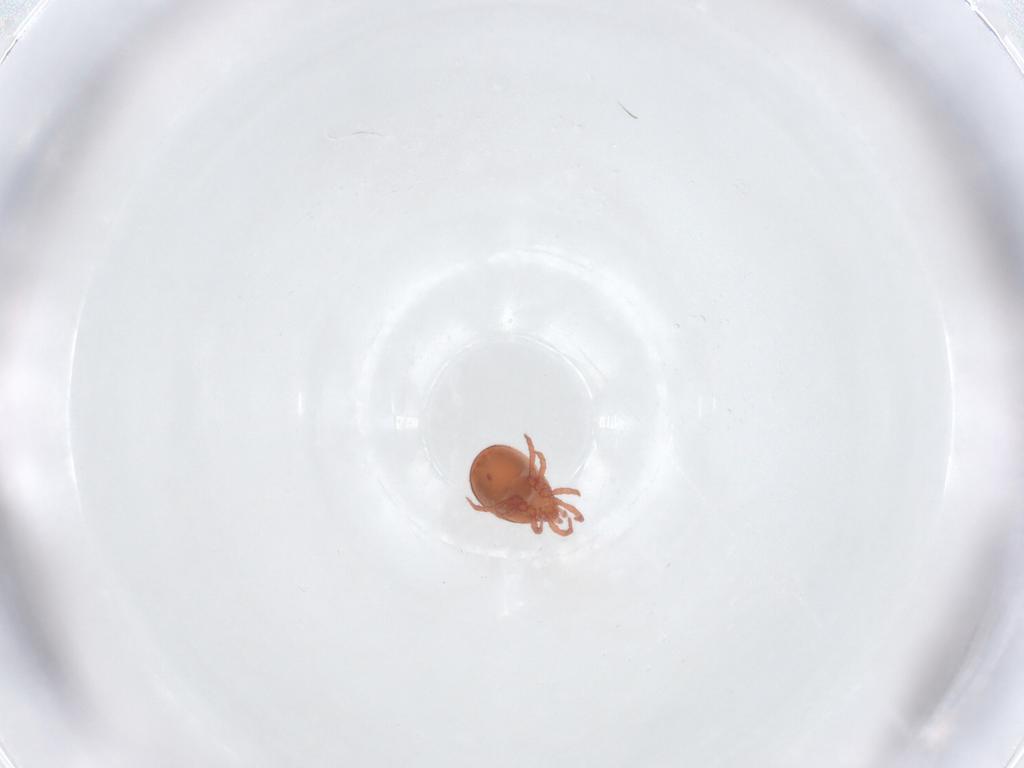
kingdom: Animalia
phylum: Arthropoda
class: Arachnida
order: Mesostigmata
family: Zerconidae
